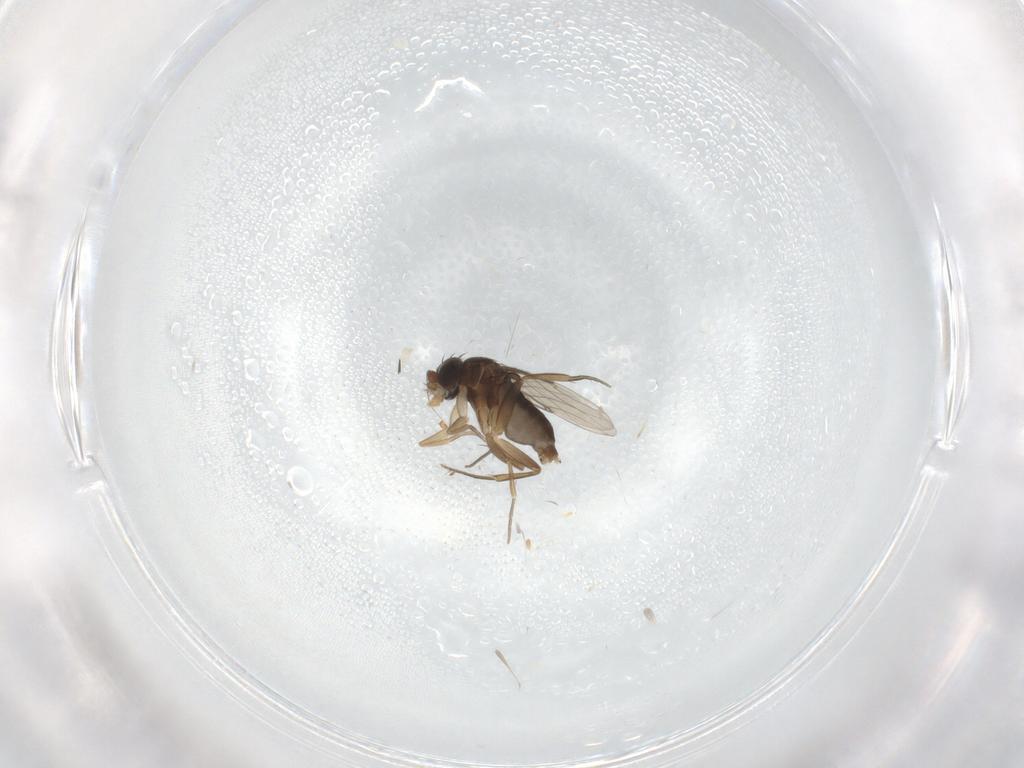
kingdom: Animalia
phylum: Arthropoda
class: Insecta
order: Diptera
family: Phoridae
